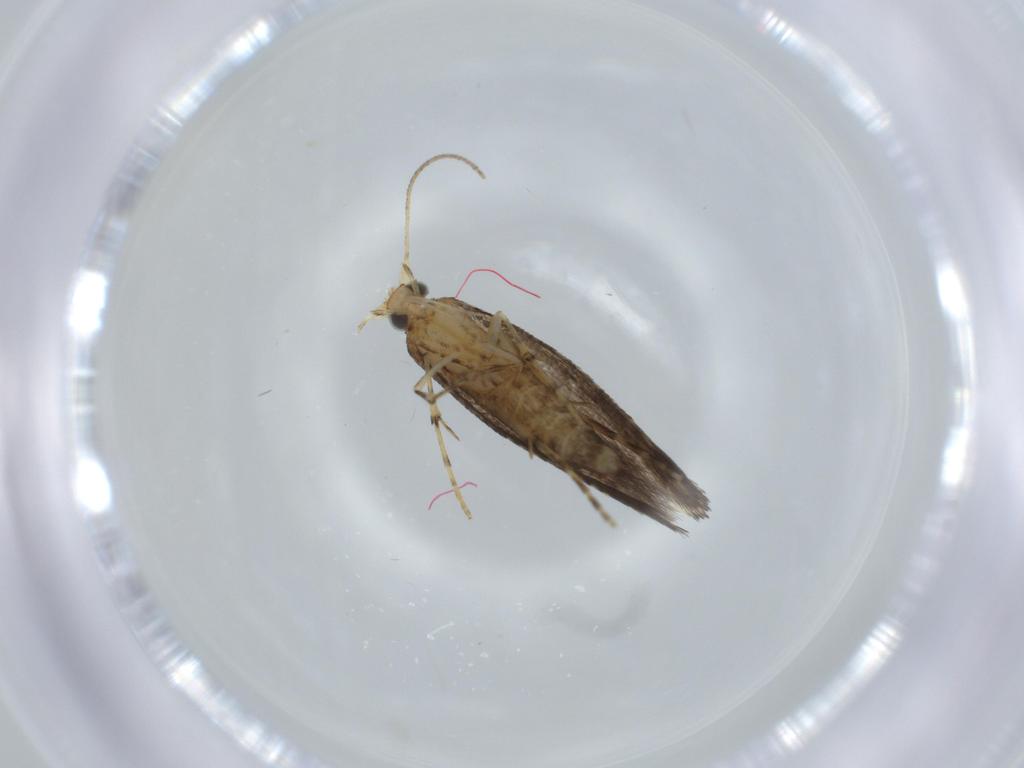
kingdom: Animalia
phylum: Arthropoda
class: Insecta
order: Lepidoptera
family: Argyresthiidae
